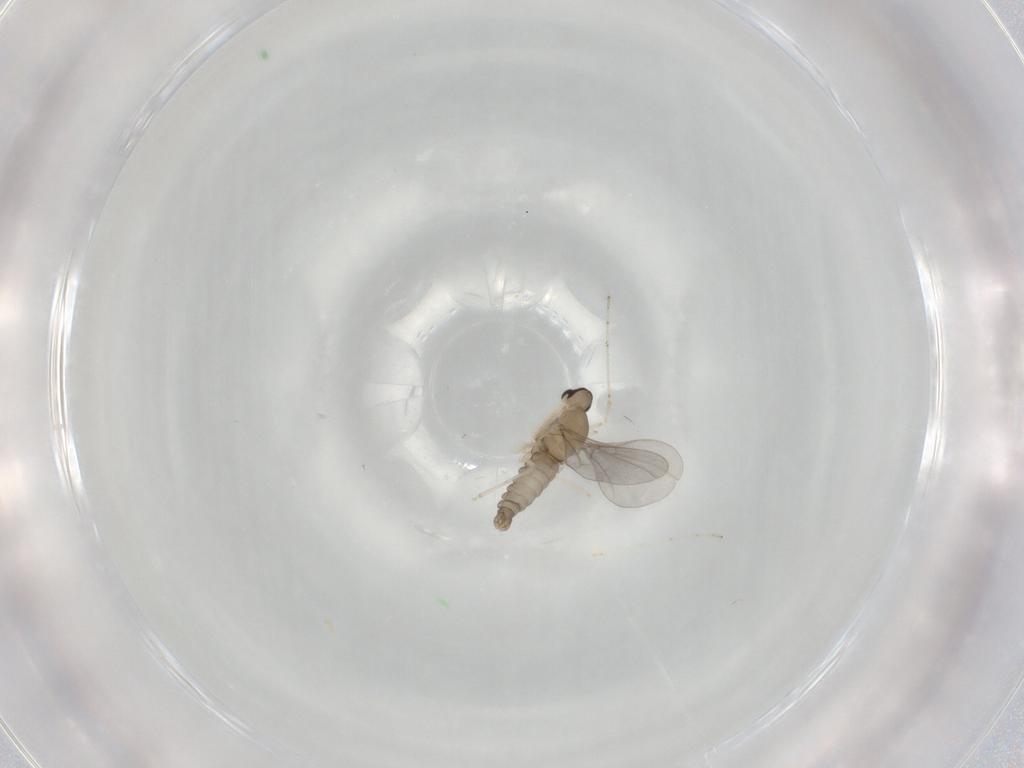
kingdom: Animalia
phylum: Arthropoda
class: Insecta
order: Diptera
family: Cecidomyiidae
